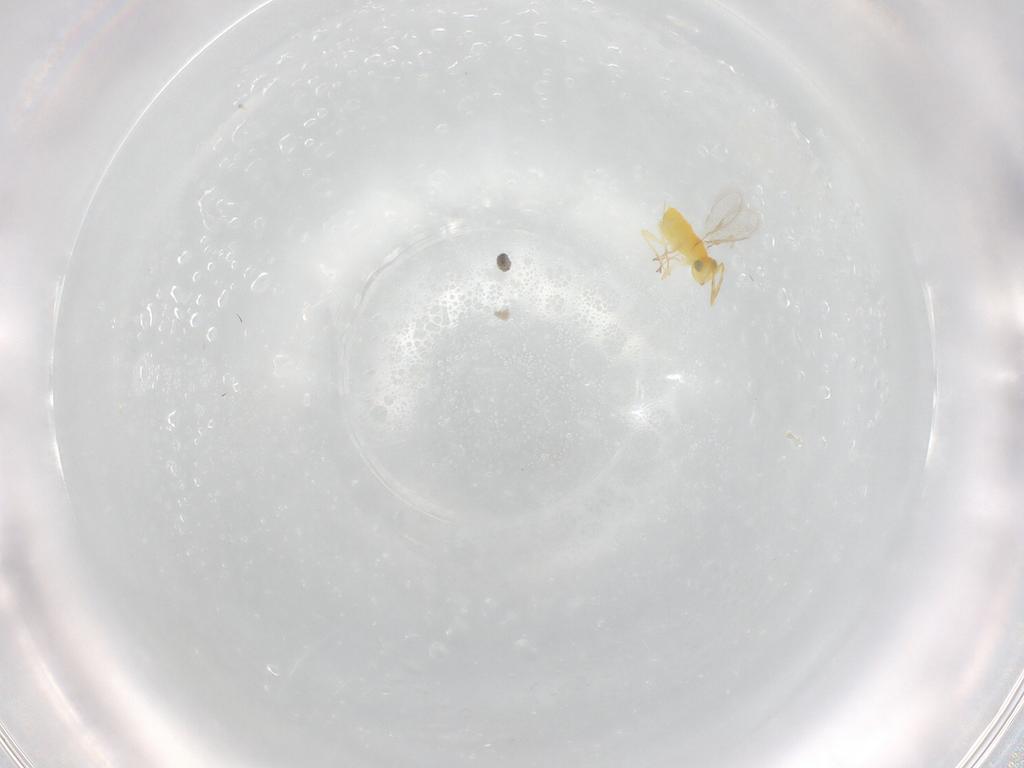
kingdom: Animalia
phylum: Arthropoda
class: Insecta
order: Hymenoptera
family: Aphelinidae
